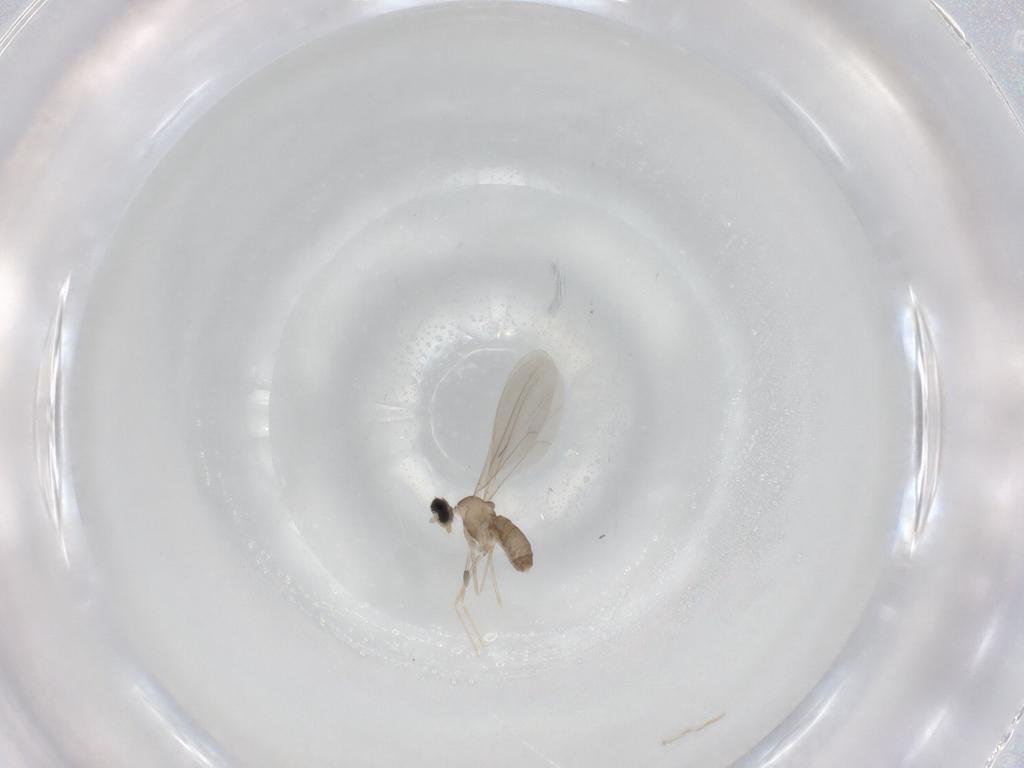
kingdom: Animalia
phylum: Arthropoda
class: Insecta
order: Diptera
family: Cecidomyiidae
